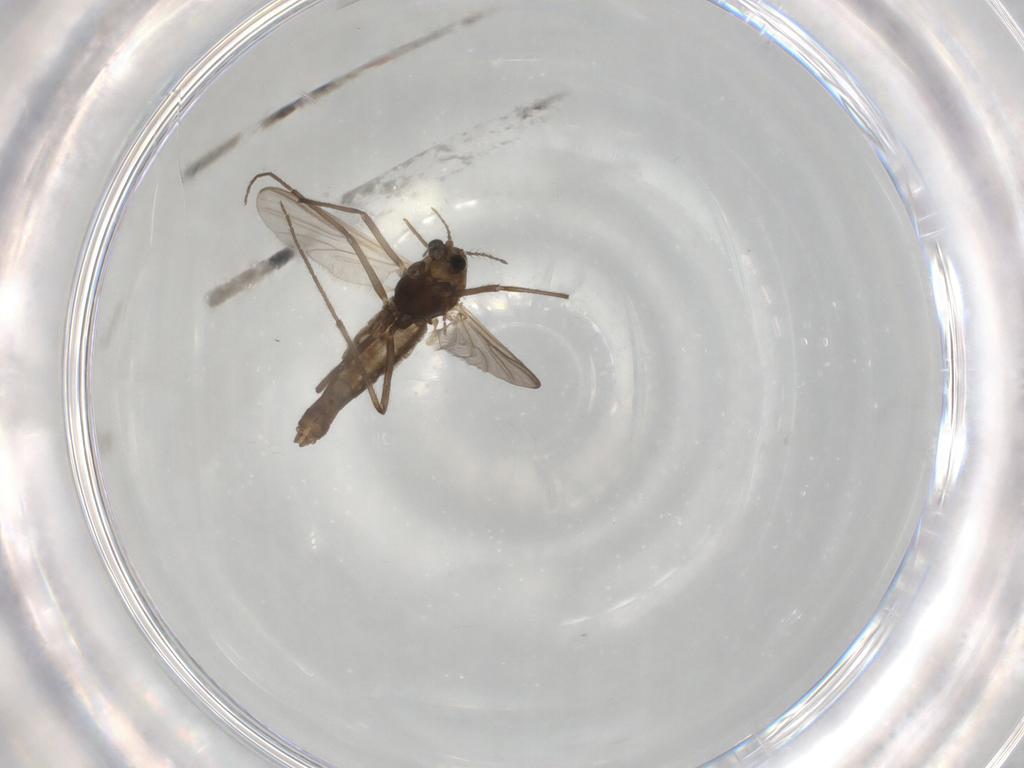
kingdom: Animalia
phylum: Arthropoda
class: Insecta
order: Diptera
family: Chironomidae
